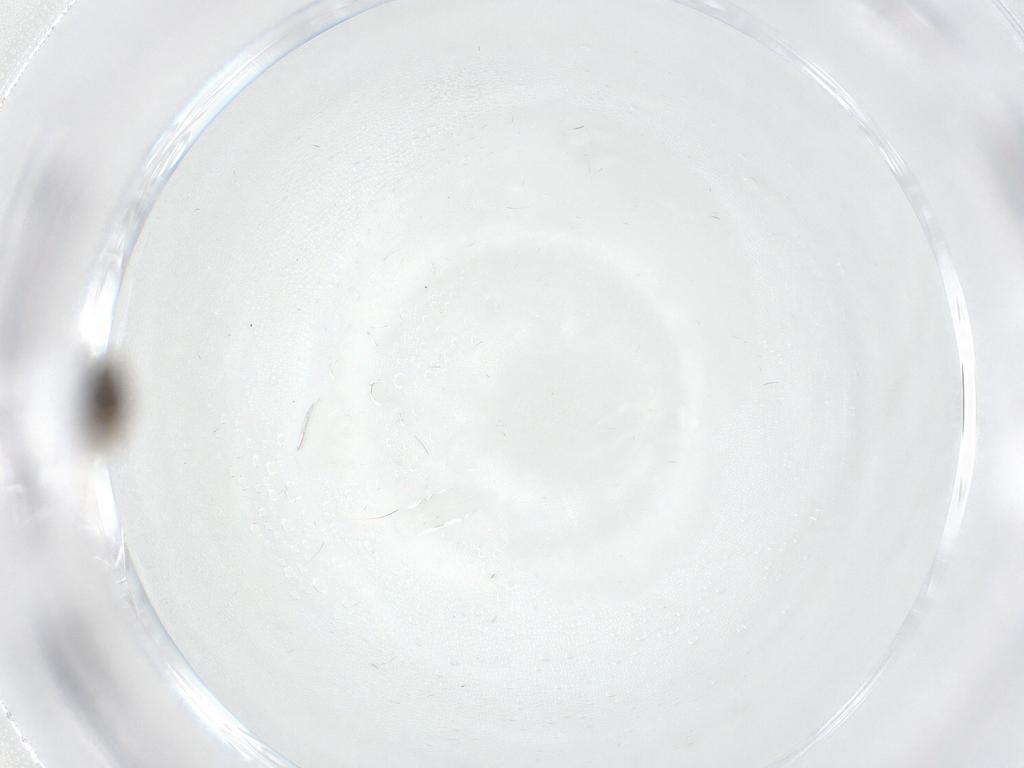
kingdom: Animalia
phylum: Arthropoda
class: Insecta
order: Diptera
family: Psychodidae
